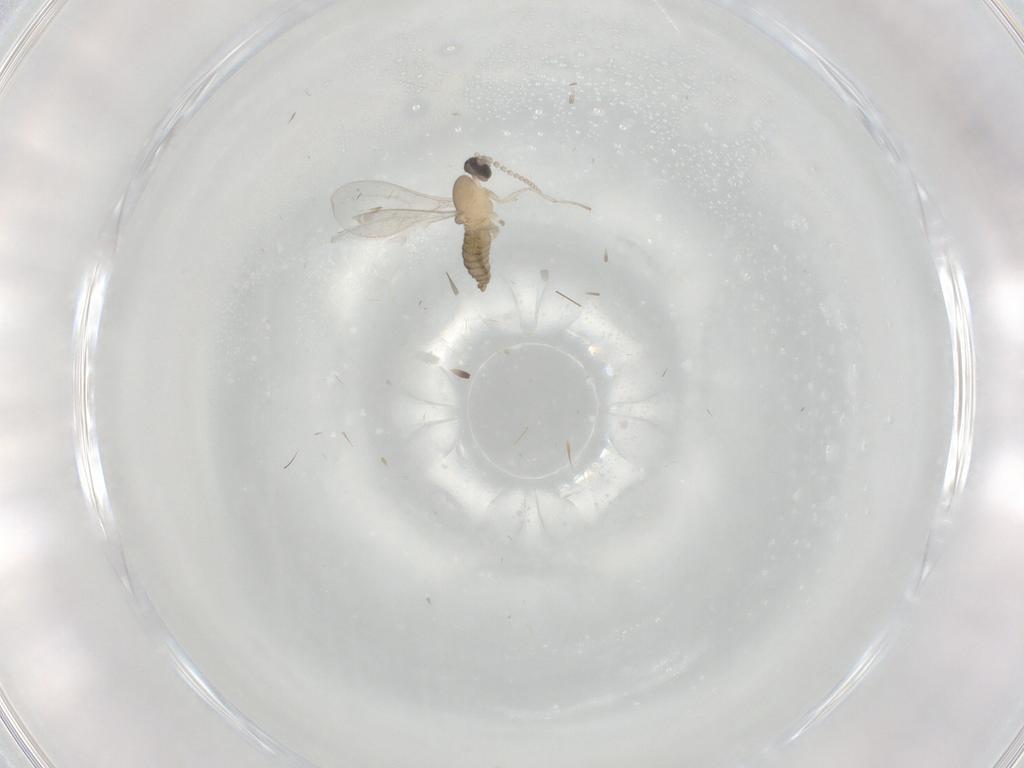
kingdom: Animalia
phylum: Arthropoda
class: Insecta
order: Diptera
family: Cecidomyiidae
